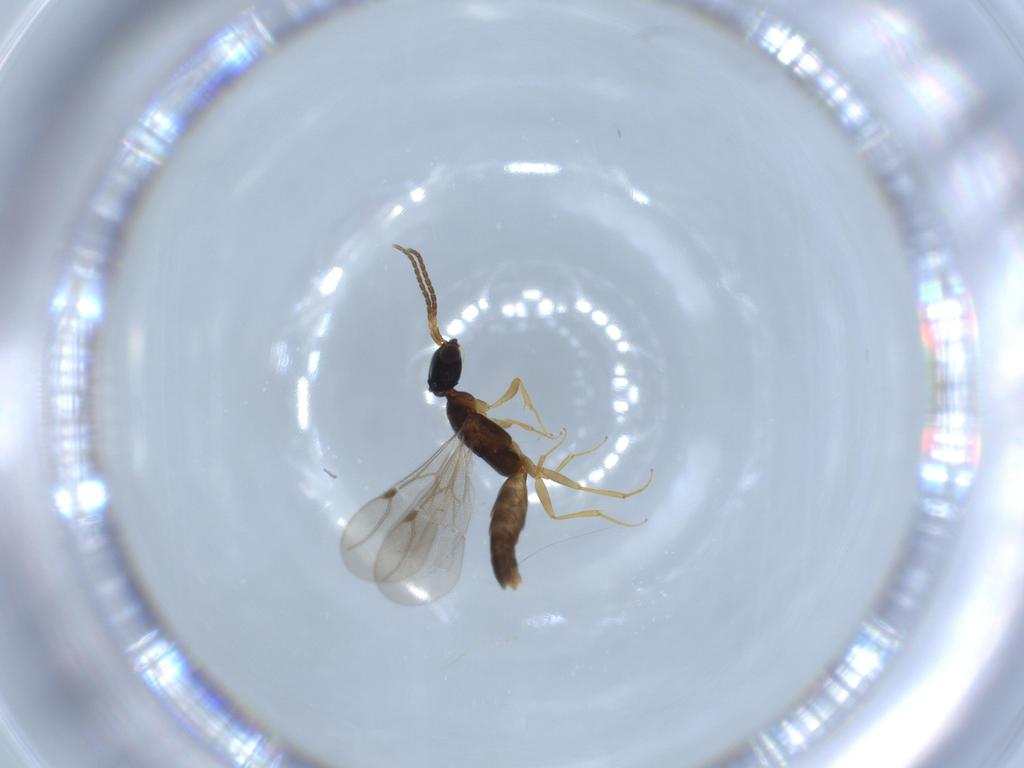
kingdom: Animalia
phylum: Arthropoda
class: Insecta
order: Hymenoptera
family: Bethylidae
